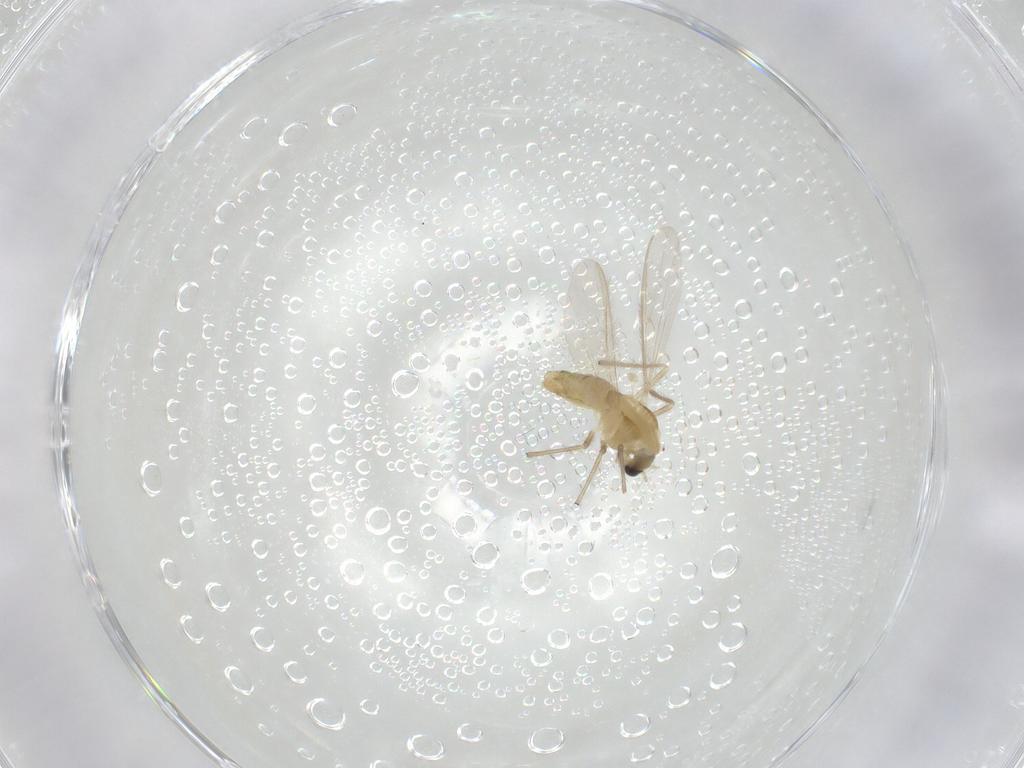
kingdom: Animalia
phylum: Arthropoda
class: Insecta
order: Diptera
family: Chironomidae
